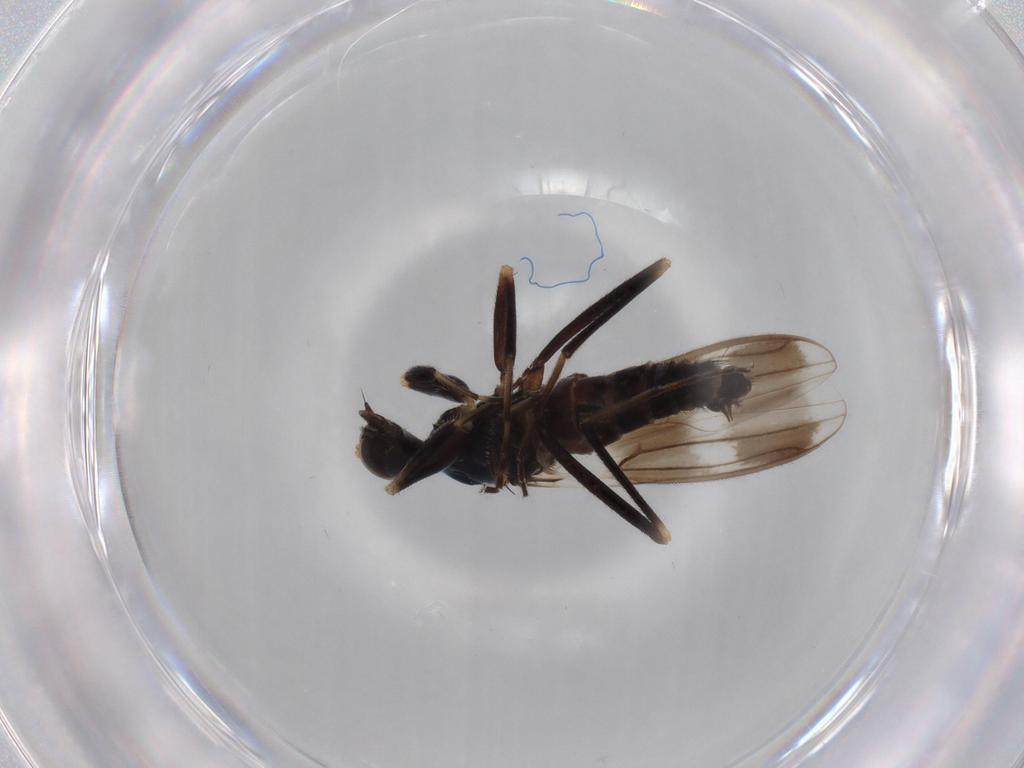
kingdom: Animalia
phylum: Arthropoda
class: Insecta
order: Diptera
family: Hybotidae
